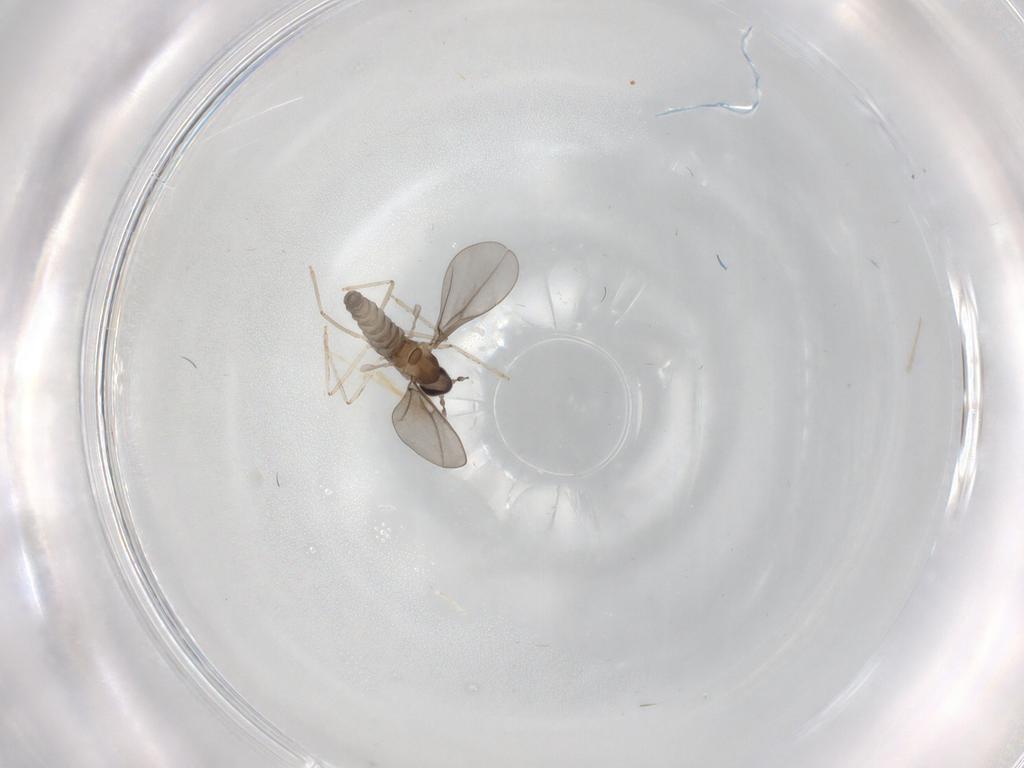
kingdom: Animalia
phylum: Arthropoda
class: Insecta
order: Diptera
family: Cecidomyiidae
